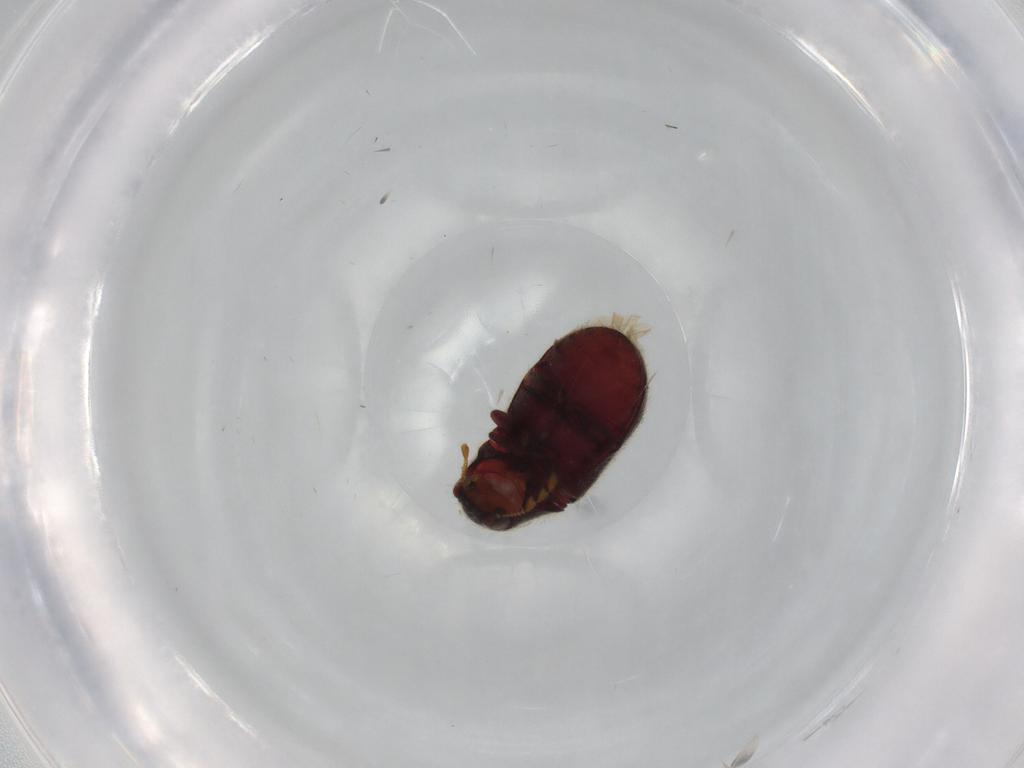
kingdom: Animalia
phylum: Arthropoda
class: Insecta
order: Coleoptera
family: Ptinidae
